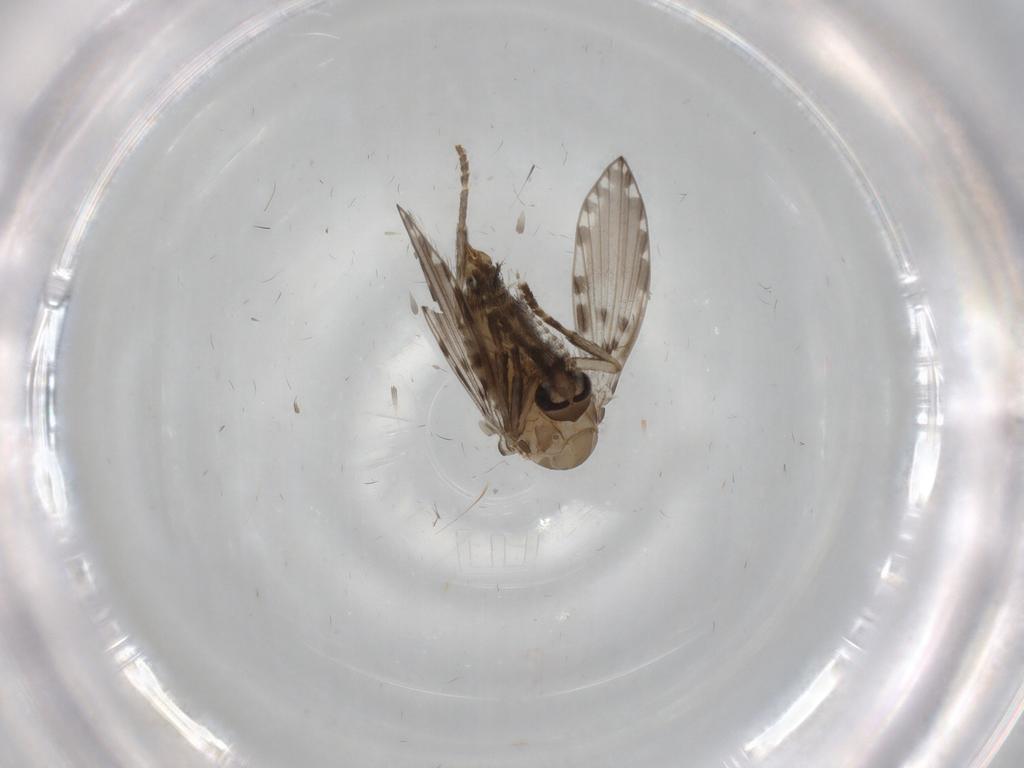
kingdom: Animalia
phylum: Arthropoda
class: Insecta
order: Diptera
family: Psychodidae
